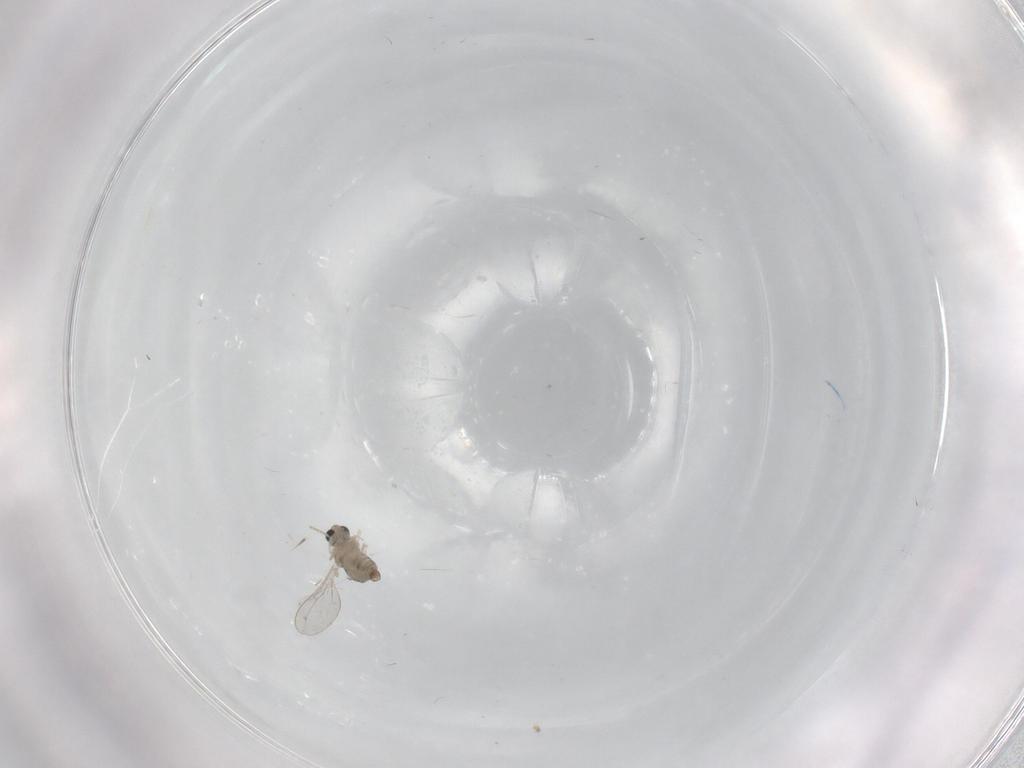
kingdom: Animalia
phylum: Arthropoda
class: Insecta
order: Diptera
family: Cecidomyiidae
